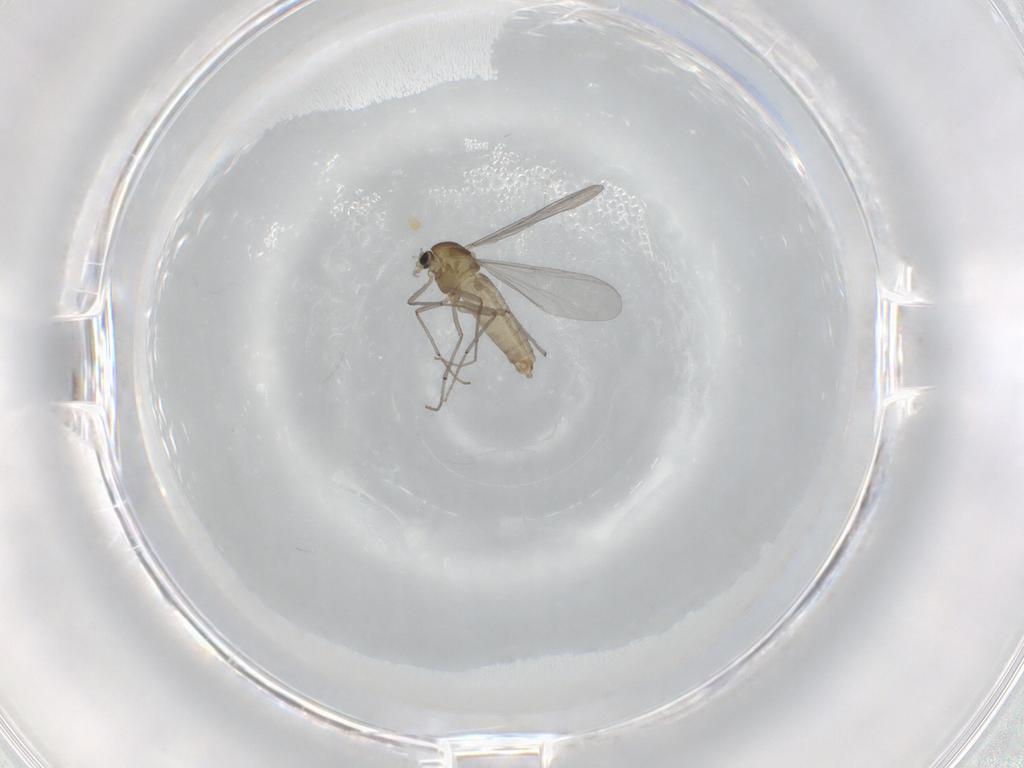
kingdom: Animalia
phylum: Arthropoda
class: Insecta
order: Diptera
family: Chironomidae
